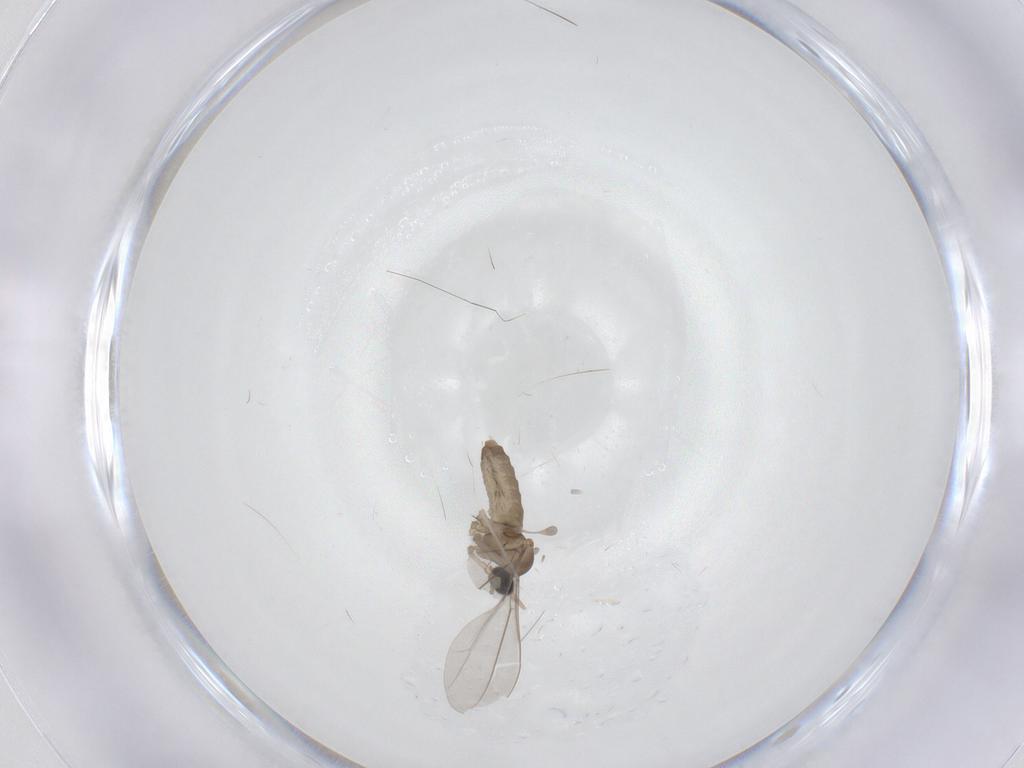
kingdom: Animalia
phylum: Arthropoda
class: Insecta
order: Diptera
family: Cecidomyiidae
